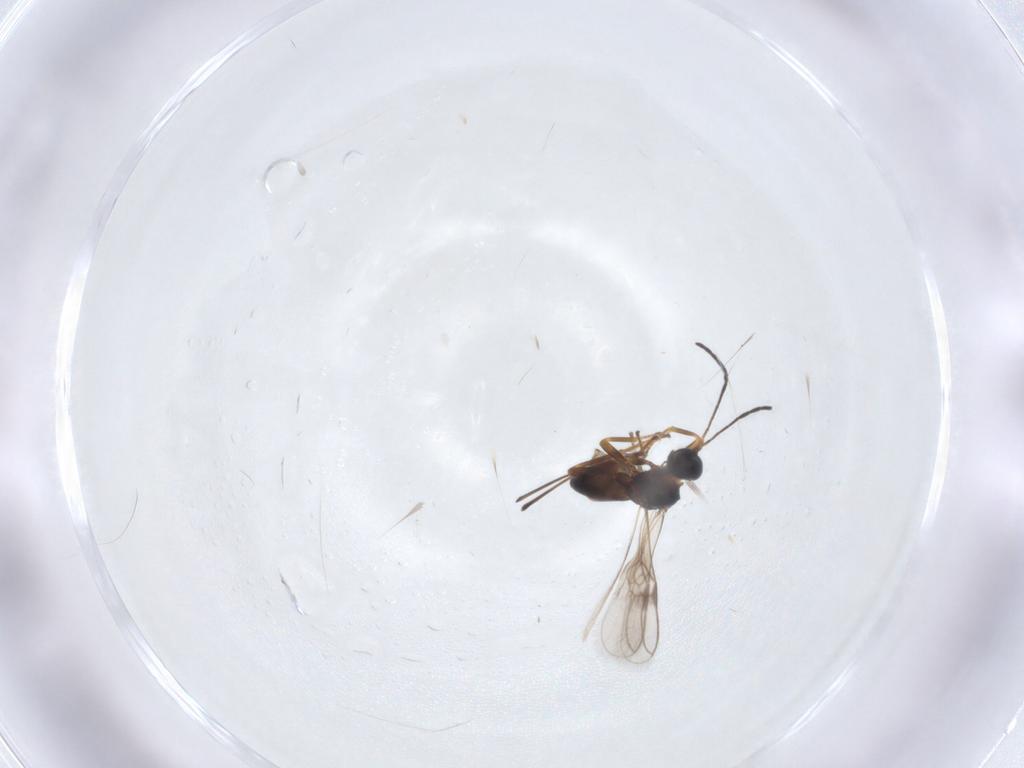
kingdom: Animalia
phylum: Arthropoda
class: Insecta
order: Hymenoptera
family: Braconidae
